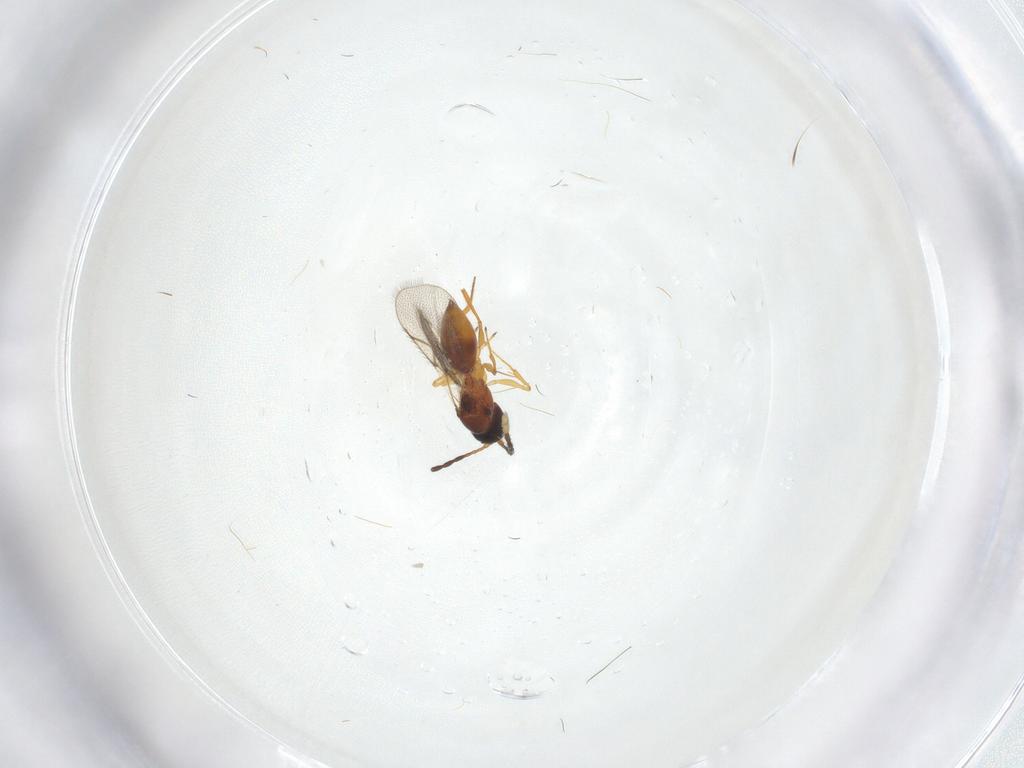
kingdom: Animalia
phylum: Arthropoda
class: Insecta
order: Hymenoptera
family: Figitidae
